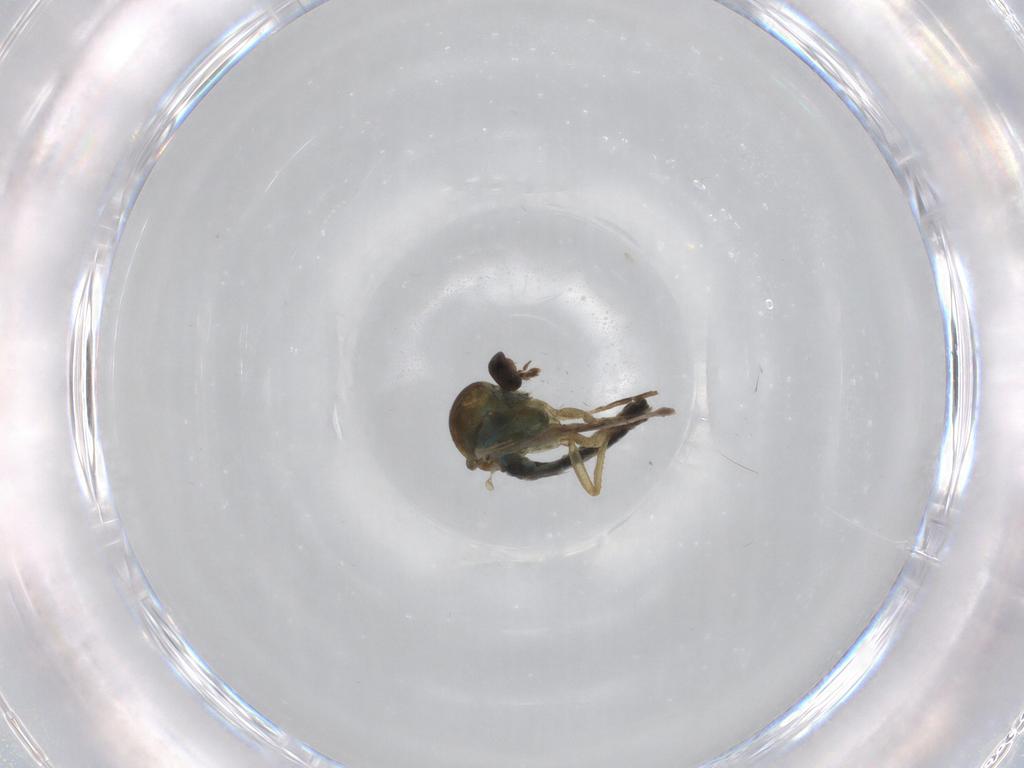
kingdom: Animalia
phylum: Arthropoda
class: Insecta
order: Diptera
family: Ceratopogonidae
